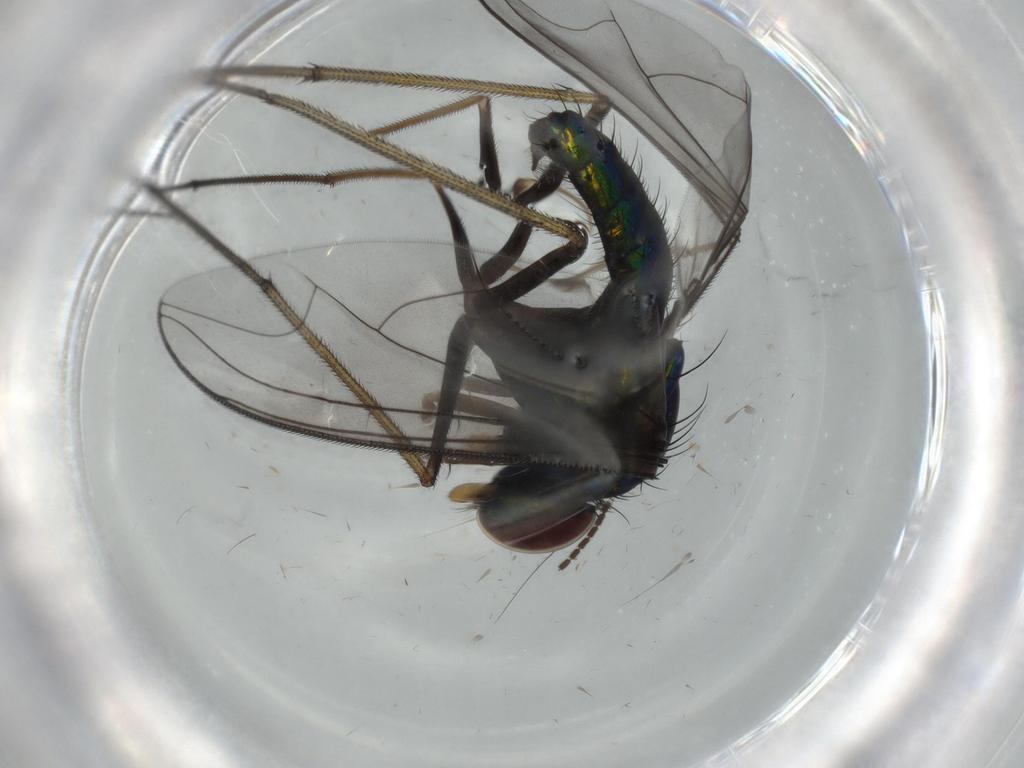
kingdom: Animalia
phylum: Arthropoda
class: Insecta
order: Diptera
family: Dolichopodidae
